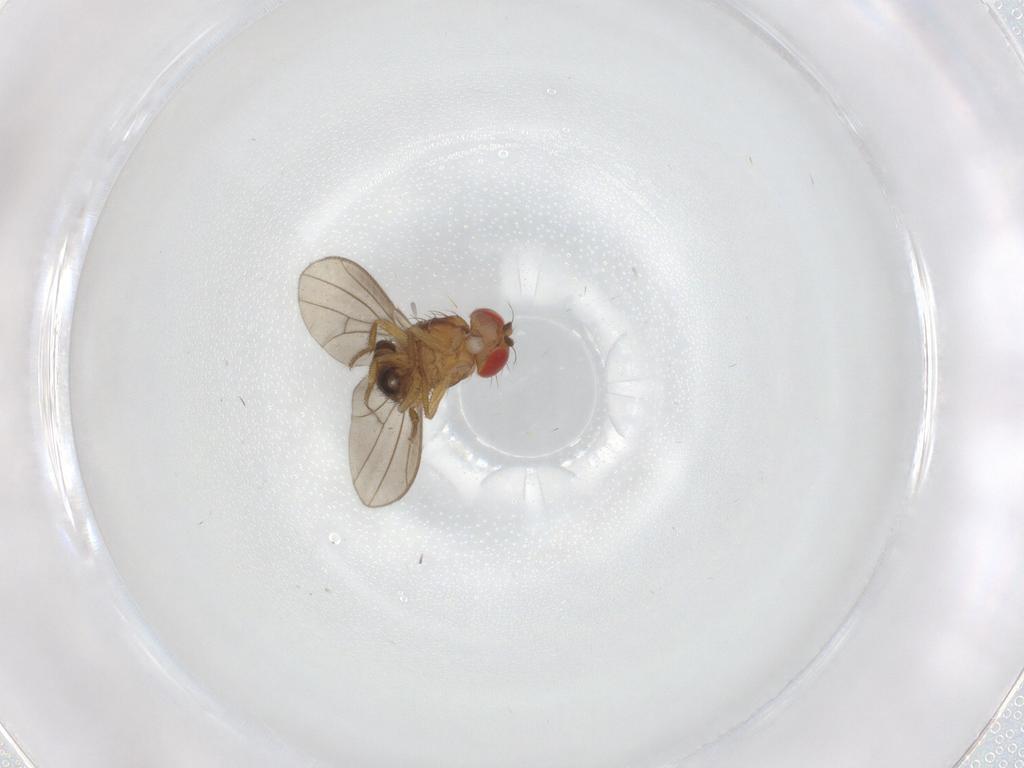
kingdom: Animalia
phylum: Arthropoda
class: Insecta
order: Diptera
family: Drosophilidae
